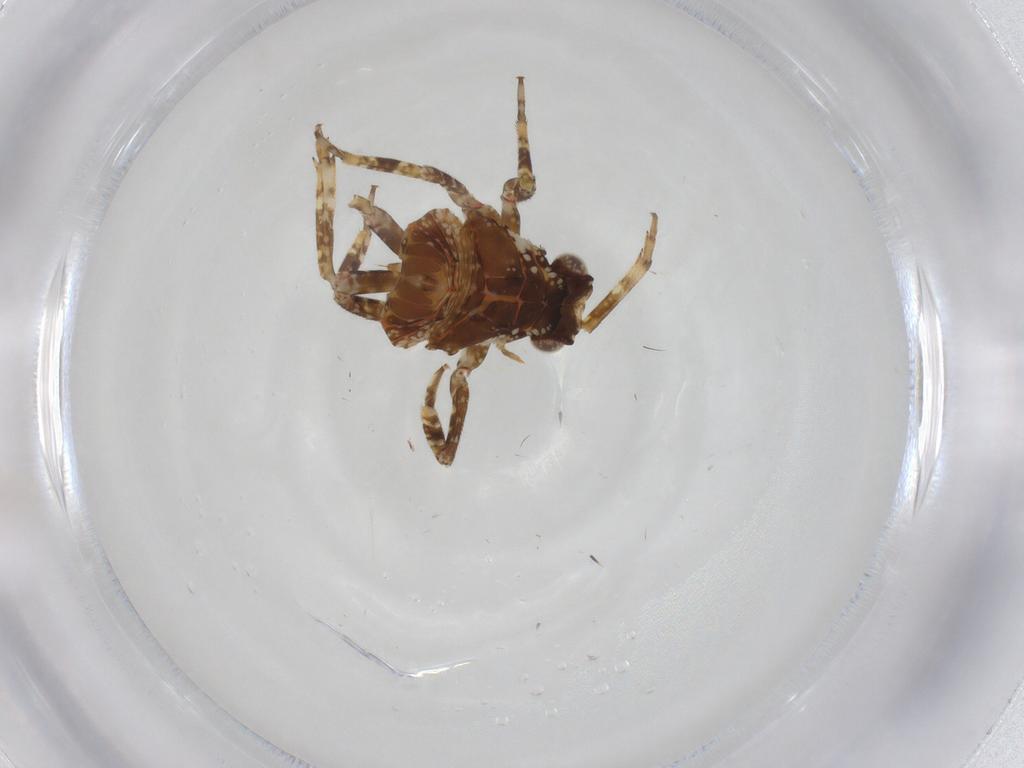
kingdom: Animalia
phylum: Arthropoda
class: Insecta
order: Hemiptera
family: Fulgoridae
